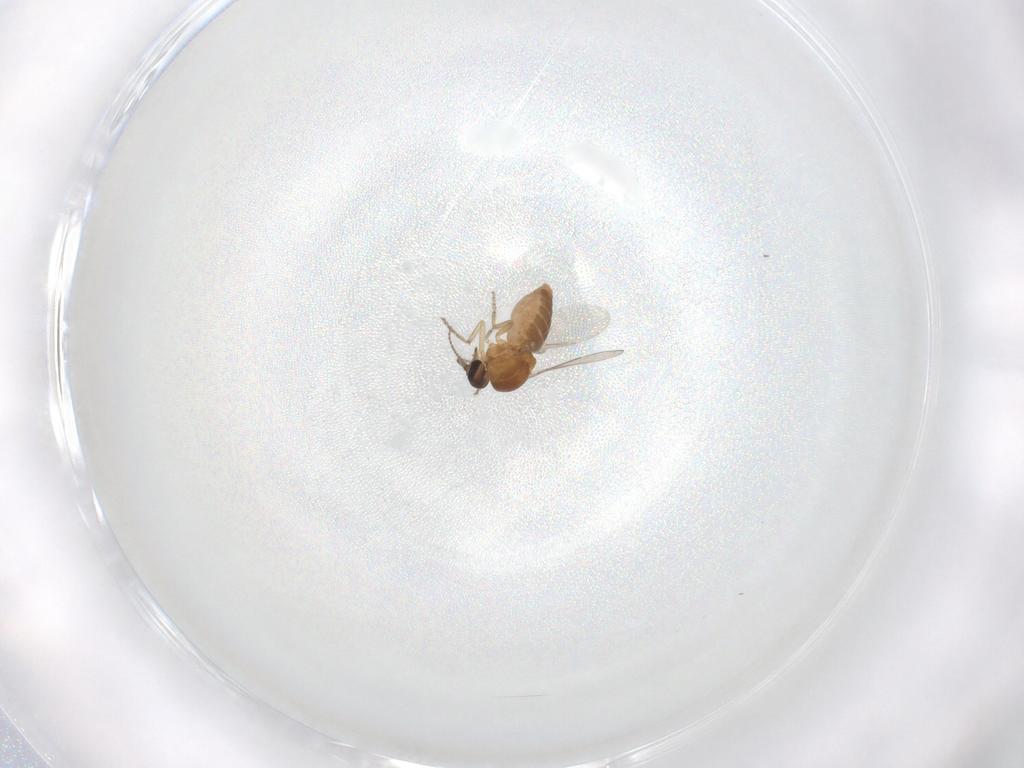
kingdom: Animalia
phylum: Arthropoda
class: Insecta
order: Diptera
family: Ceratopogonidae
